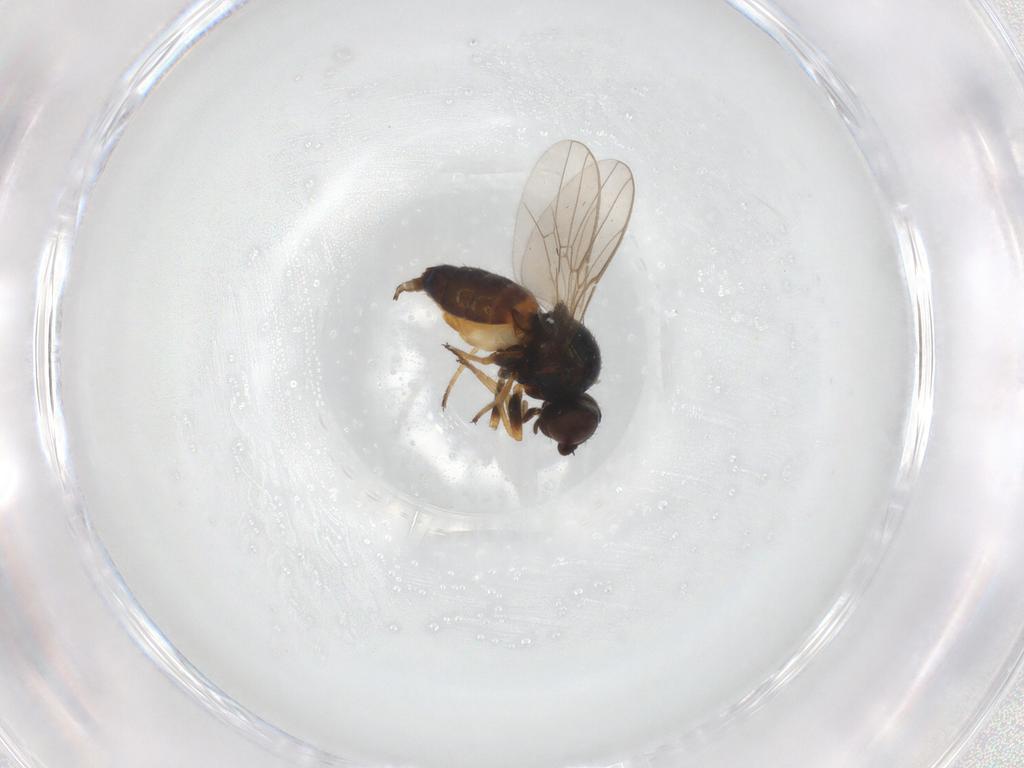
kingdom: Animalia
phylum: Arthropoda
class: Insecta
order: Diptera
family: Chloropidae
